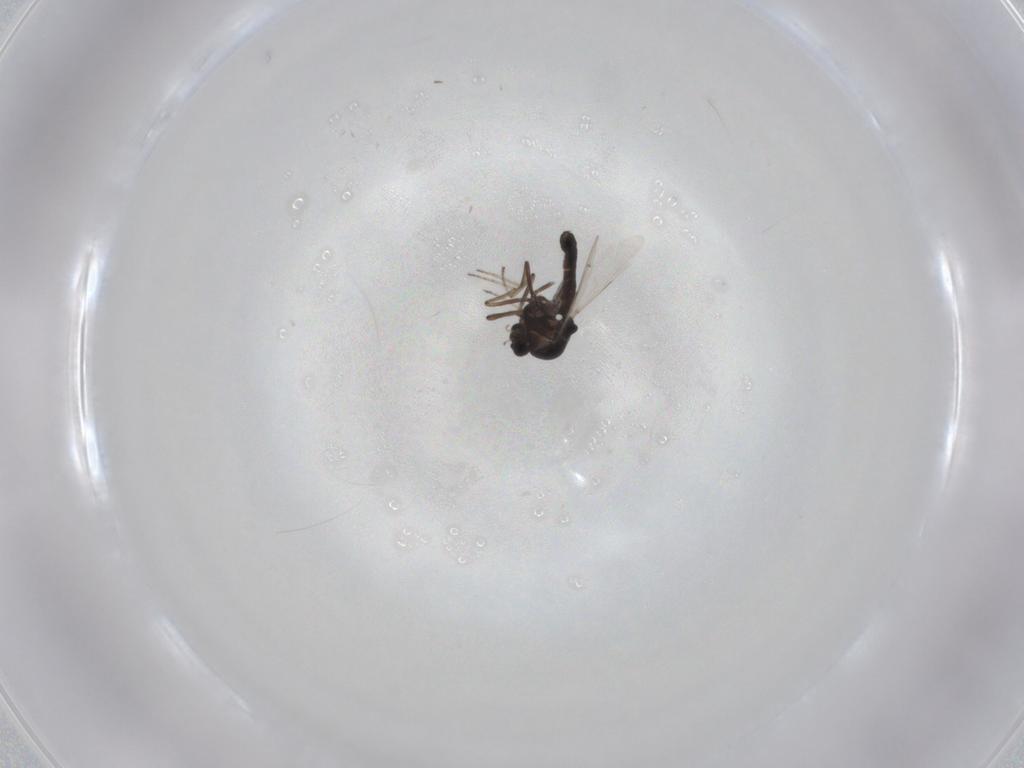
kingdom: Animalia
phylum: Arthropoda
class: Insecta
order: Diptera
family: Ceratopogonidae
